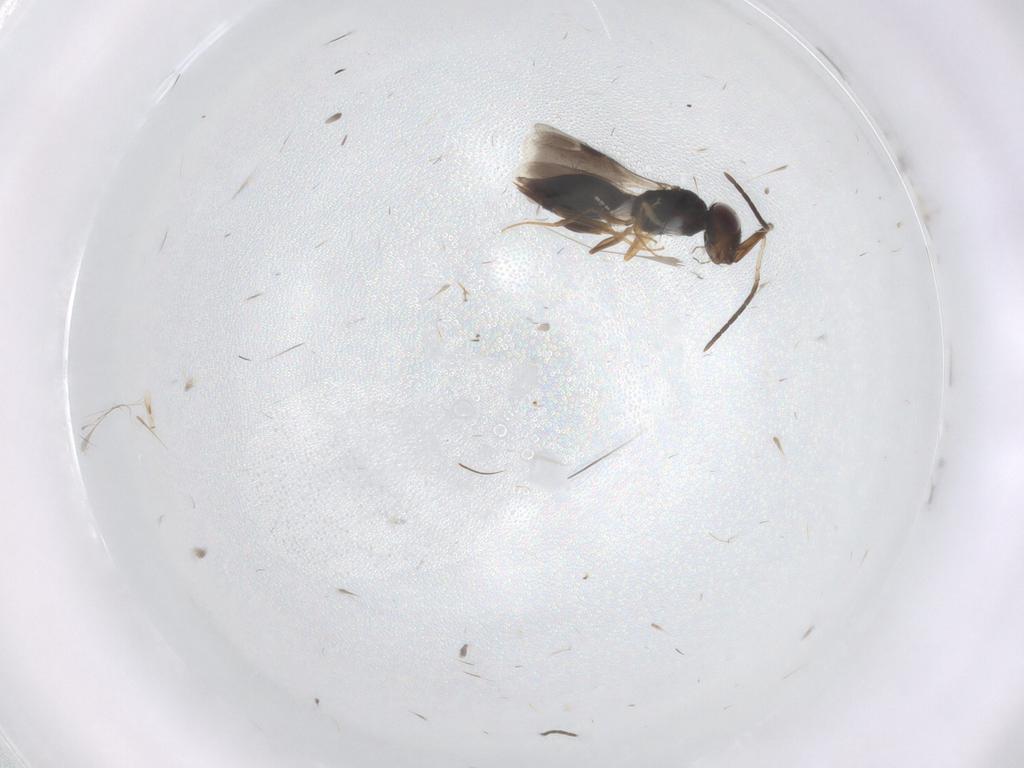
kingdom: Animalia
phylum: Arthropoda
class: Insecta
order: Hymenoptera
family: Megaspilidae
